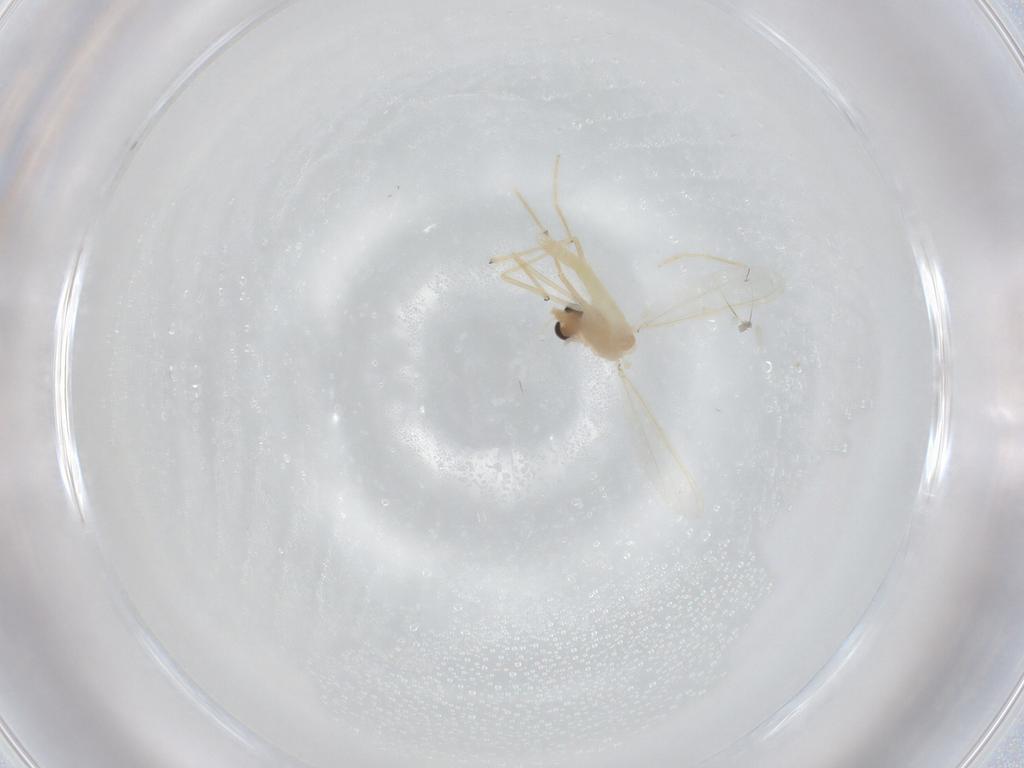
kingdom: Animalia
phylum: Arthropoda
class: Insecta
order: Diptera
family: Chironomidae
